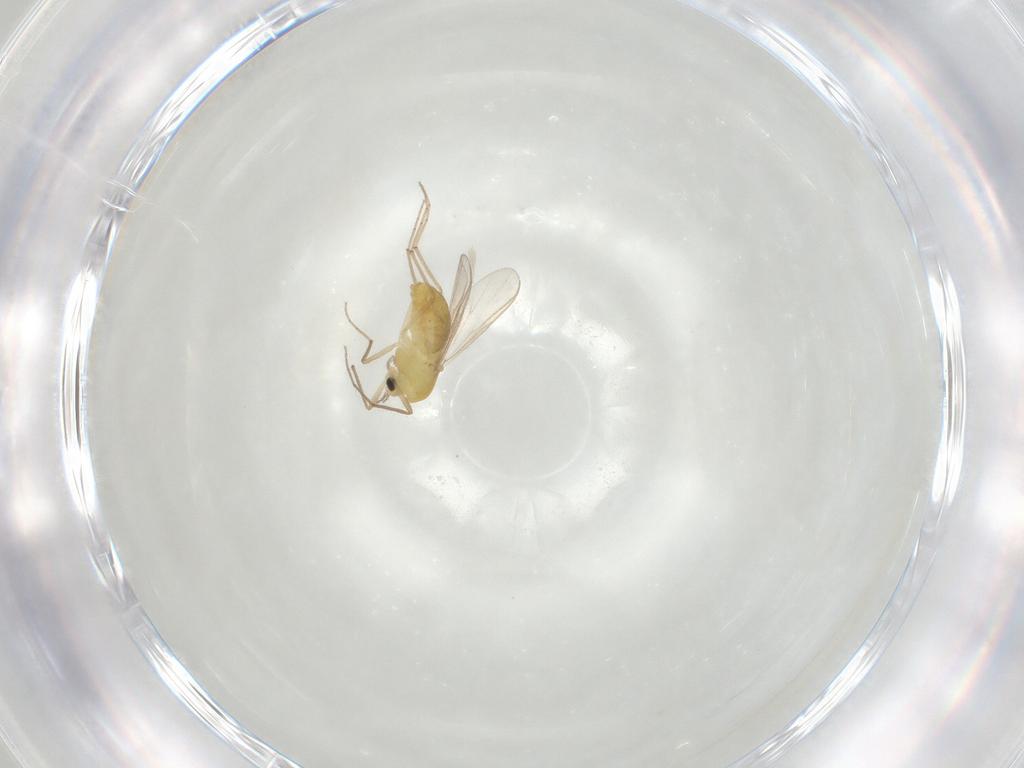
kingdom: Animalia
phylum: Arthropoda
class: Insecta
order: Diptera
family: Chironomidae
